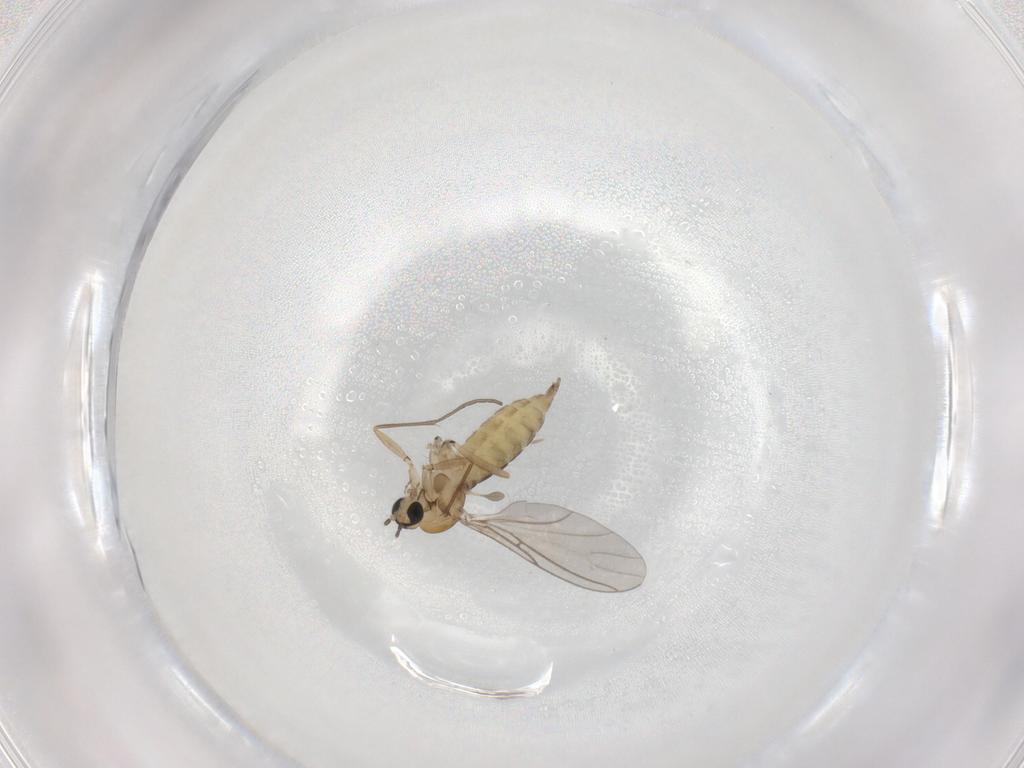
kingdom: Animalia
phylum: Arthropoda
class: Insecta
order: Diptera
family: Sciaridae
